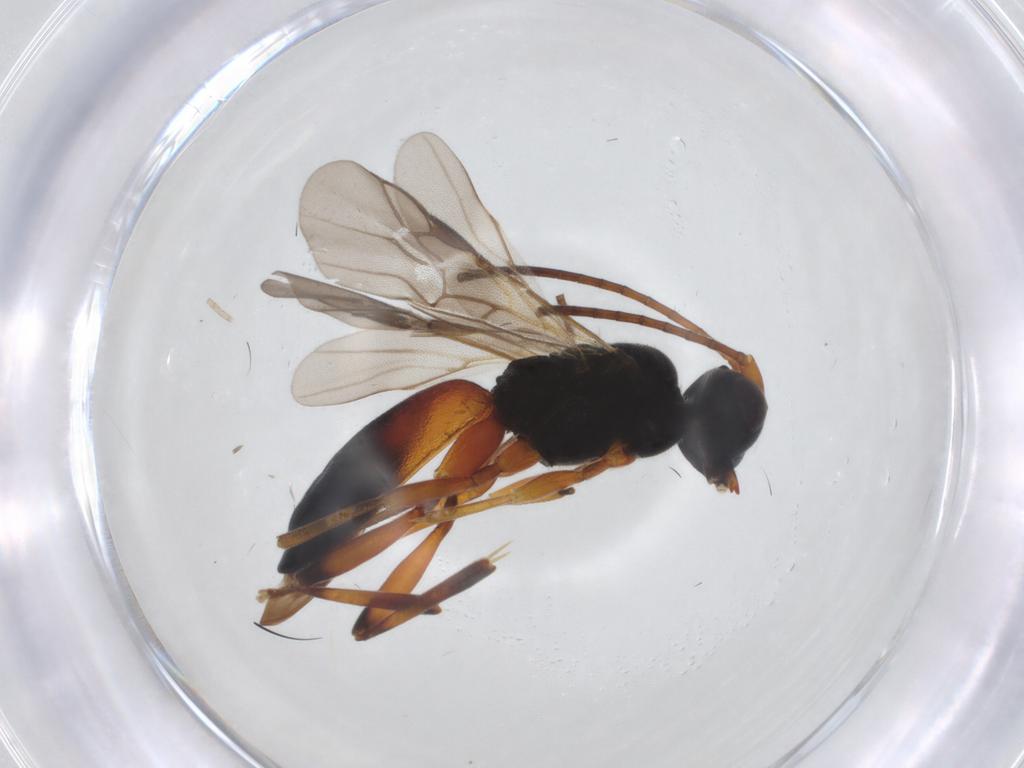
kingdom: Animalia
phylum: Arthropoda
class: Insecta
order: Hymenoptera
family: Braconidae
